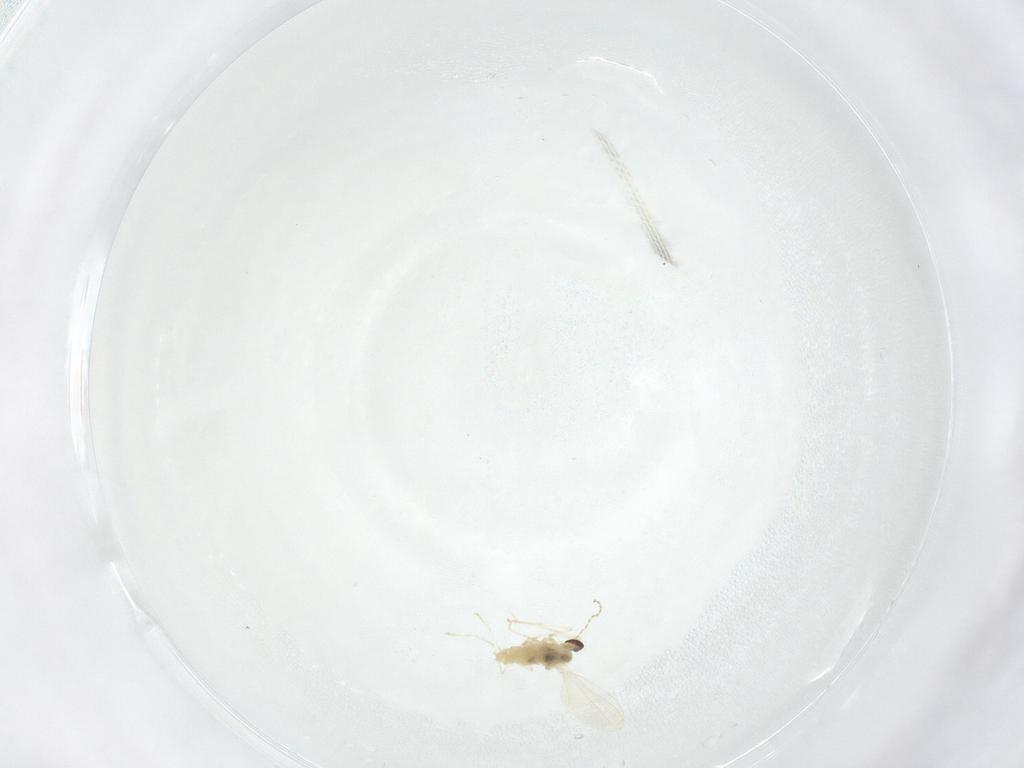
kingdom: Animalia
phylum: Arthropoda
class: Insecta
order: Diptera
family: Cecidomyiidae
